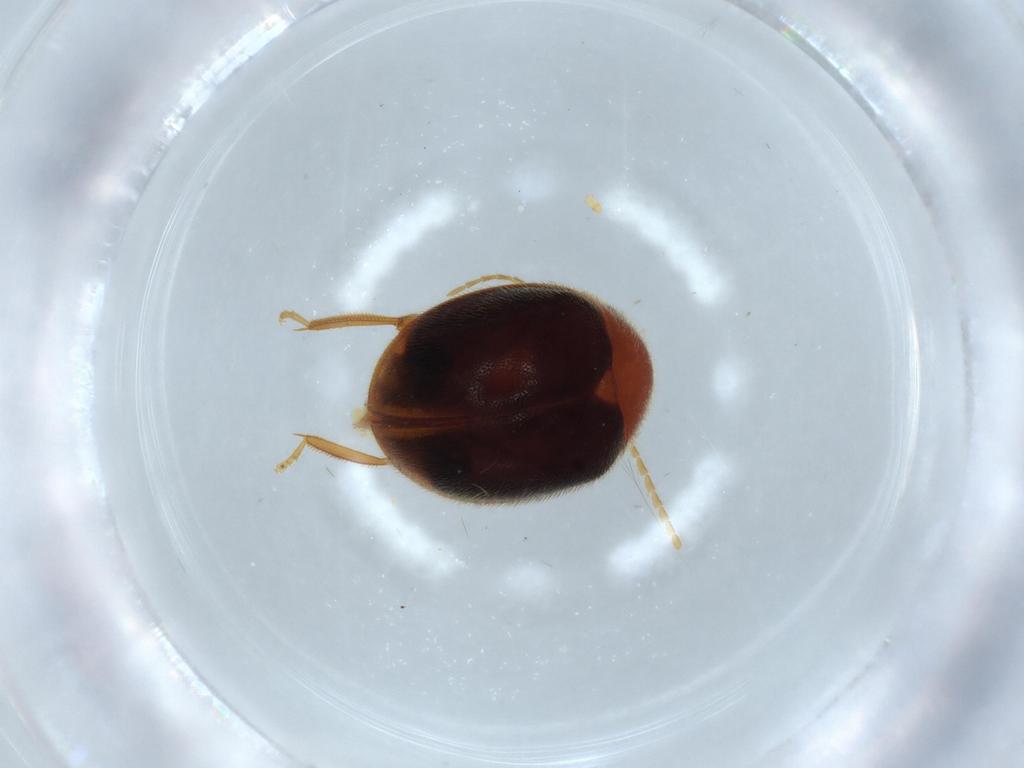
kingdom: Animalia
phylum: Arthropoda
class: Insecta
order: Coleoptera
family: Scirtidae
